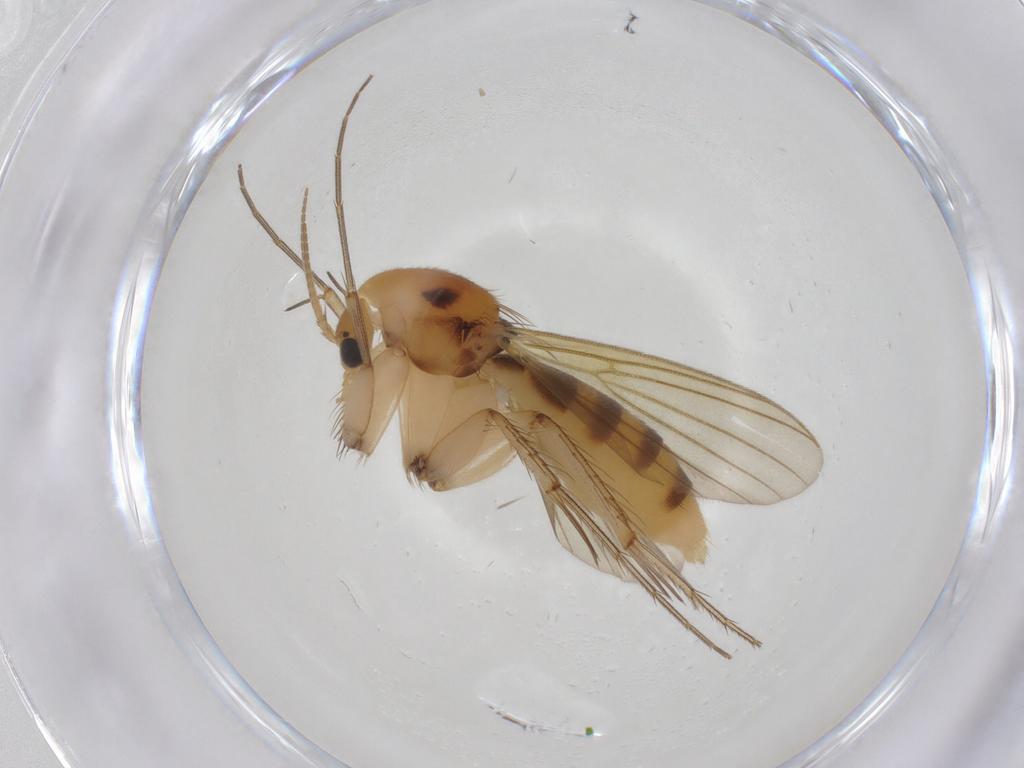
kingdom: Animalia
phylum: Arthropoda
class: Insecta
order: Diptera
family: Mycetophilidae
